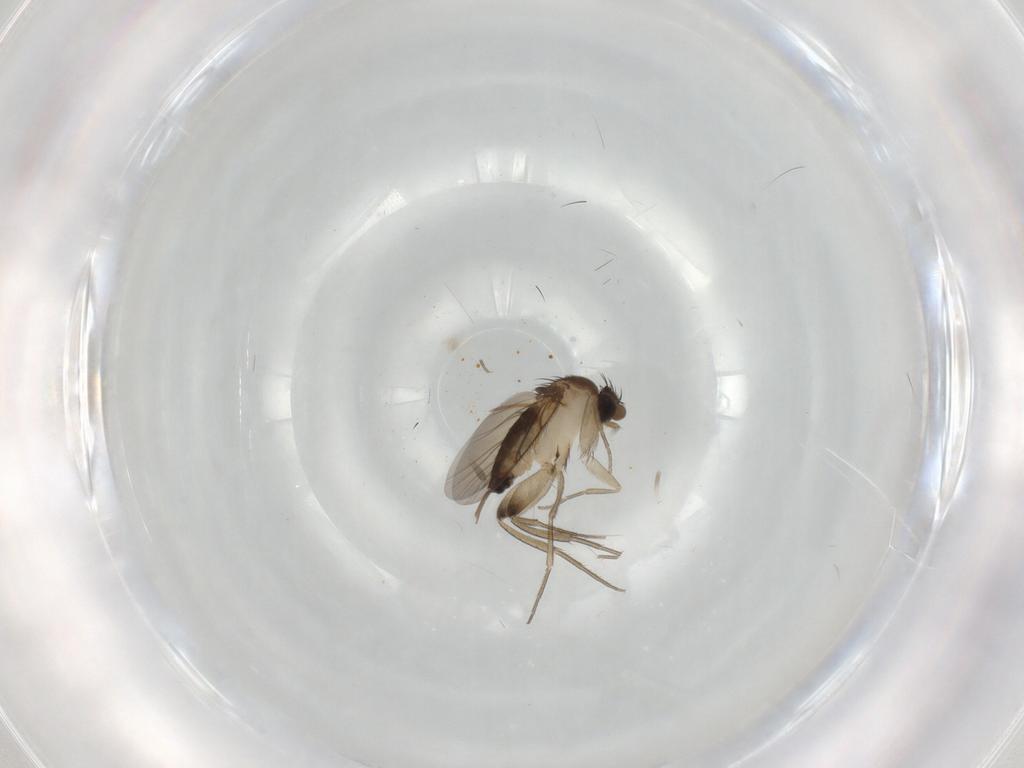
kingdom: Animalia
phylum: Arthropoda
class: Insecta
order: Diptera
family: Phoridae
